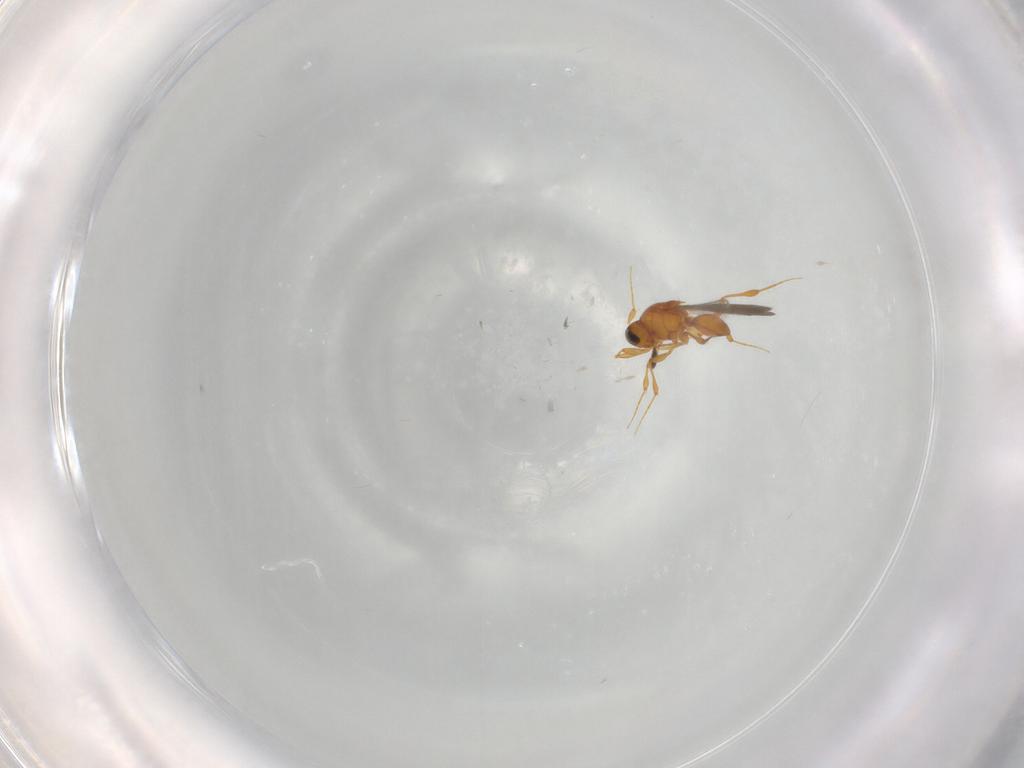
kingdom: Animalia
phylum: Arthropoda
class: Insecta
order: Hymenoptera
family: Platygastridae
